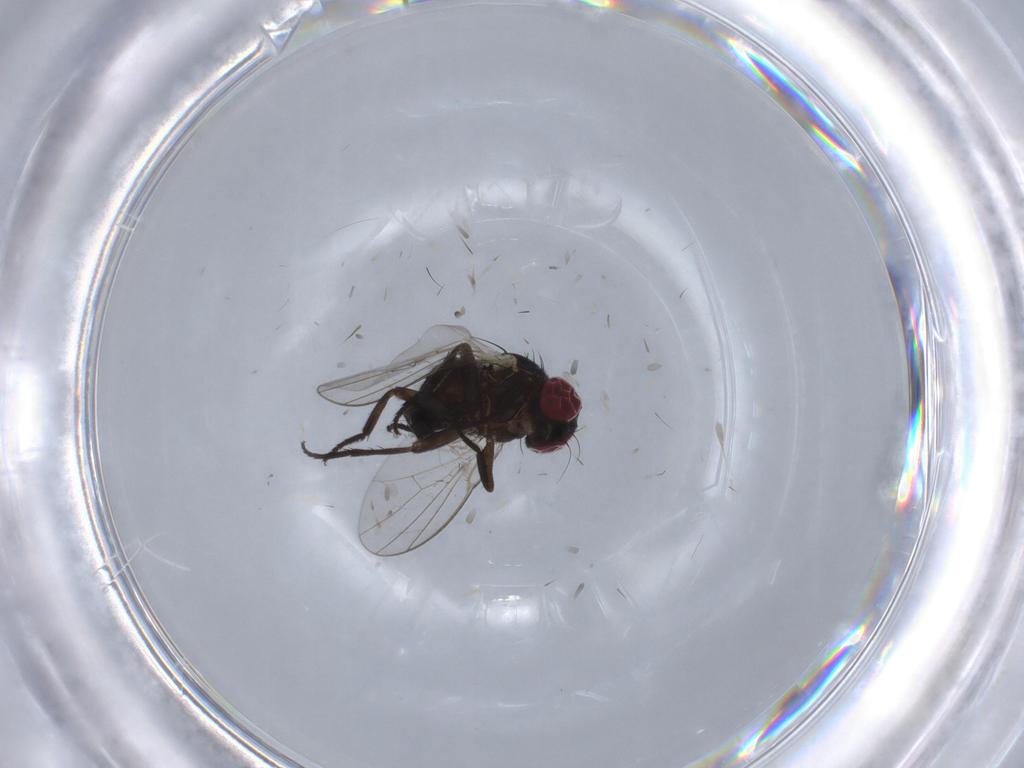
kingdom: Animalia
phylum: Arthropoda
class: Insecta
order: Diptera
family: Agromyzidae
